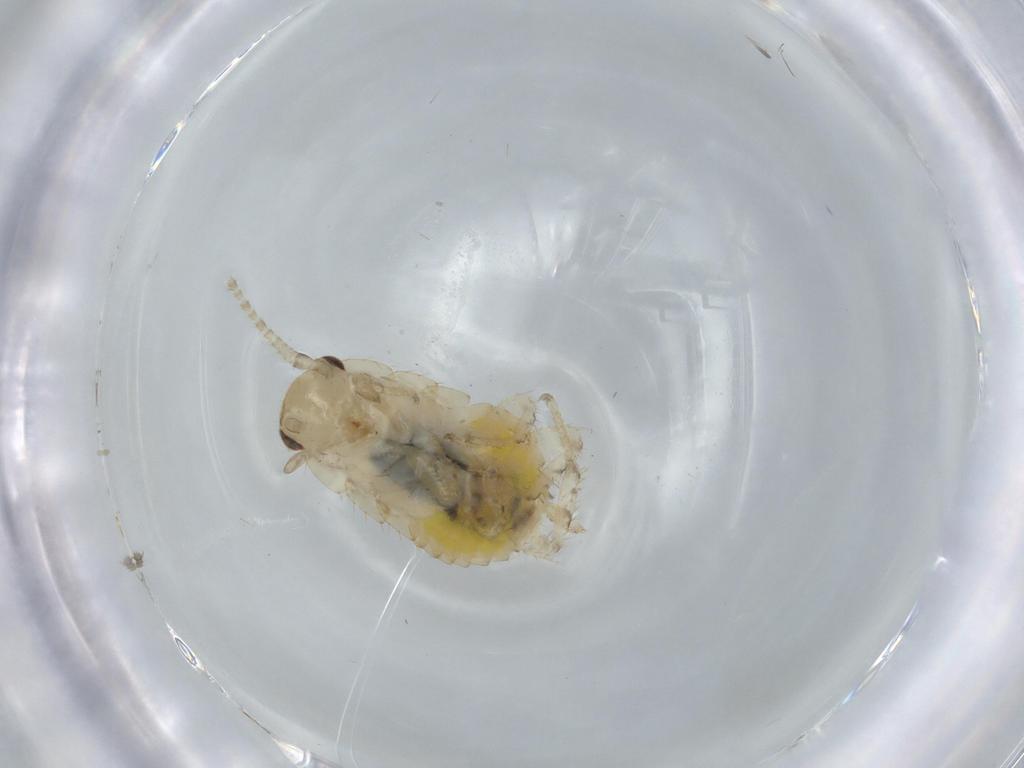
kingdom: Animalia
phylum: Arthropoda
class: Insecta
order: Blattodea
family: Ectobiidae
